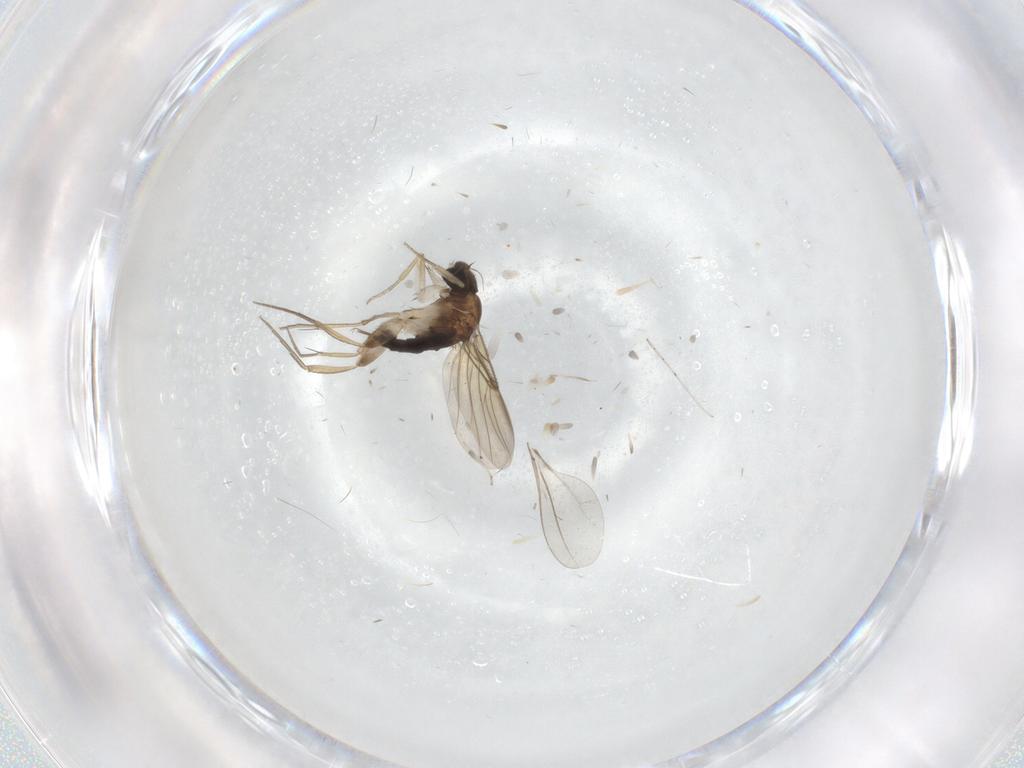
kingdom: Animalia
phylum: Arthropoda
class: Insecta
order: Diptera
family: Phoridae
